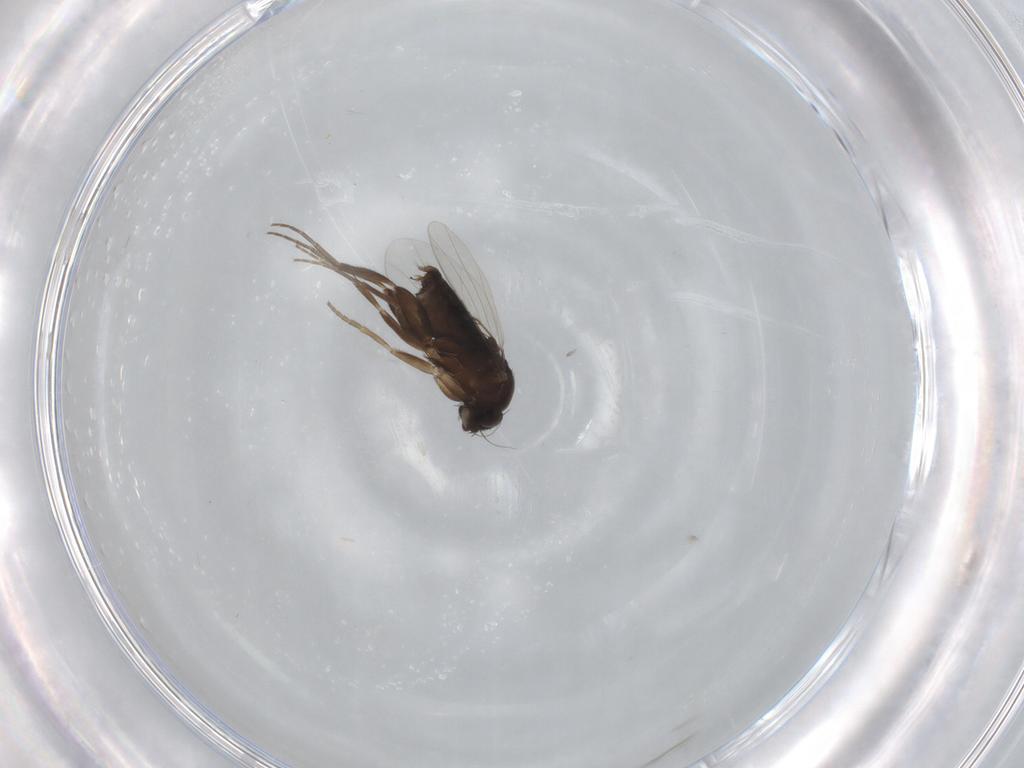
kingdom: Animalia
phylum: Arthropoda
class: Insecta
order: Diptera
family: Phoridae
